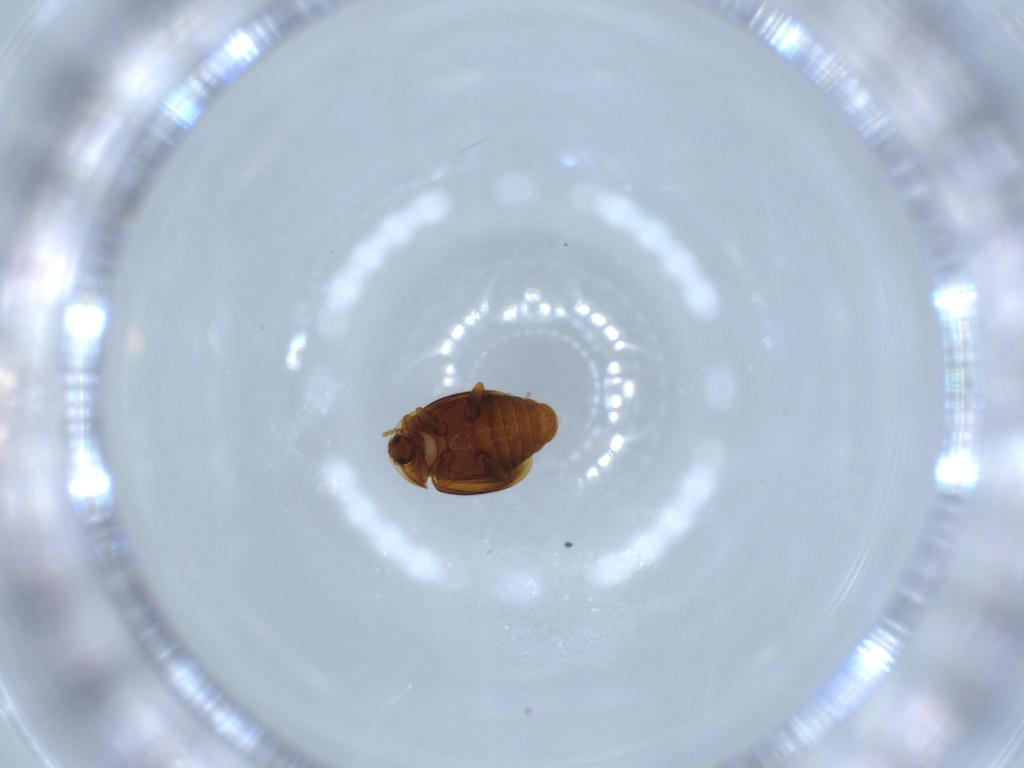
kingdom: Animalia
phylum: Arthropoda
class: Insecta
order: Coleoptera
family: Corylophidae
